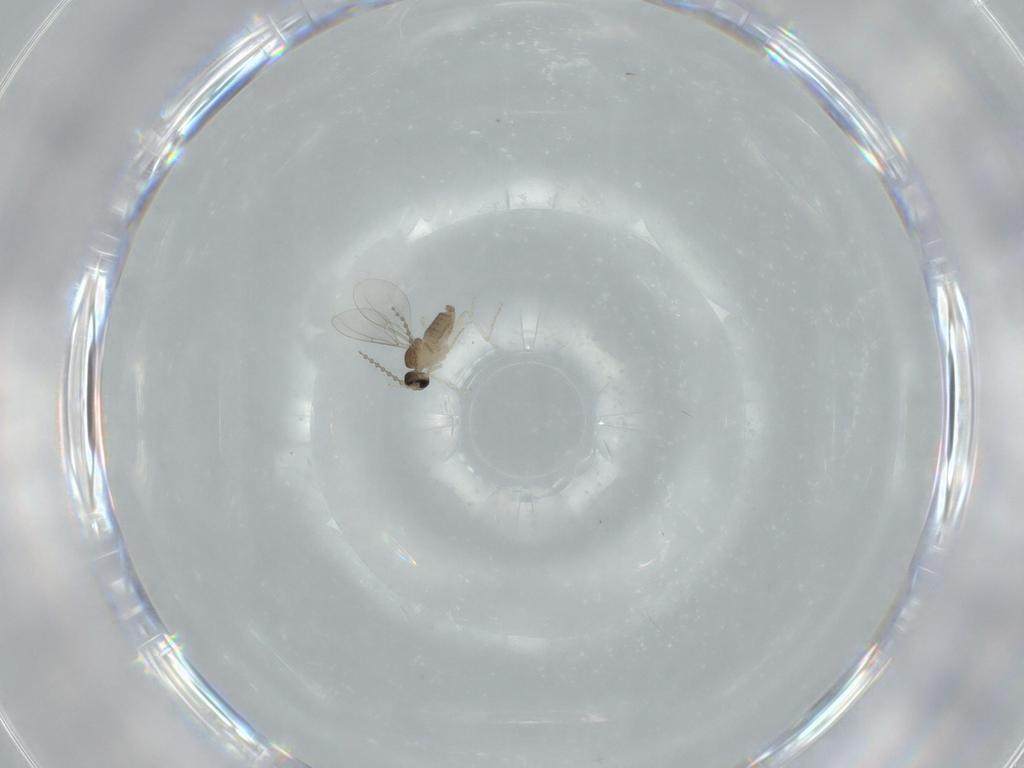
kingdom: Animalia
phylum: Arthropoda
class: Insecta
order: Diptera
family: Cecidomyiidae
